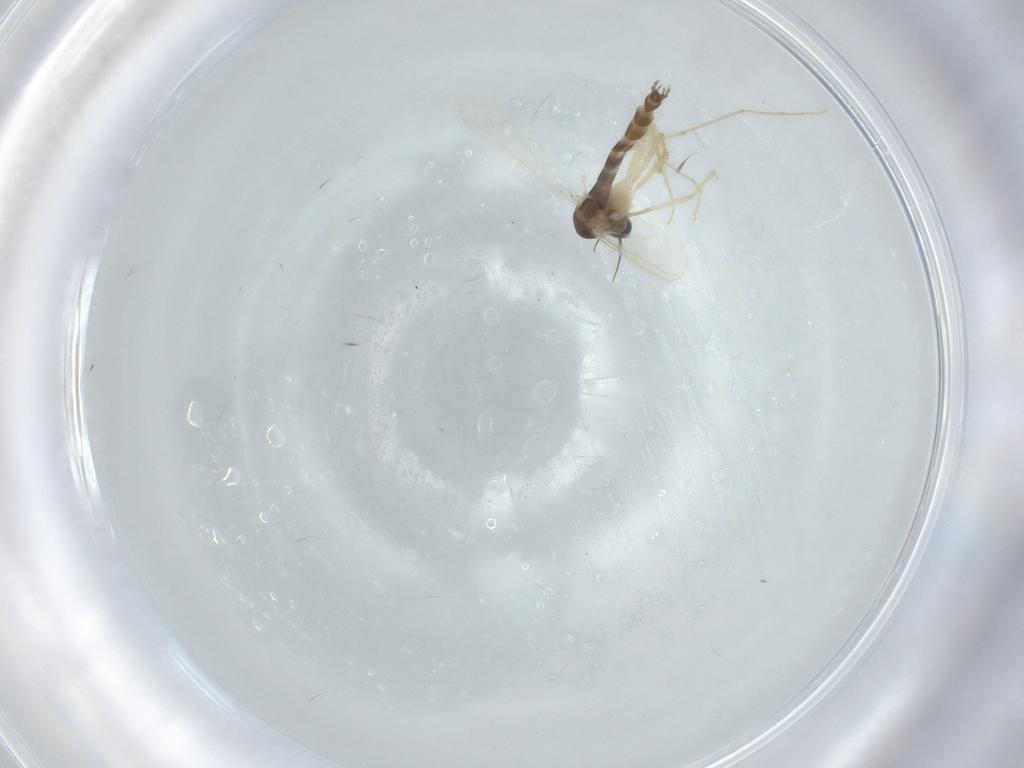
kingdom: Animalia
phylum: Arthropoda
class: Insecta
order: Diptera
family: Chironomidae
